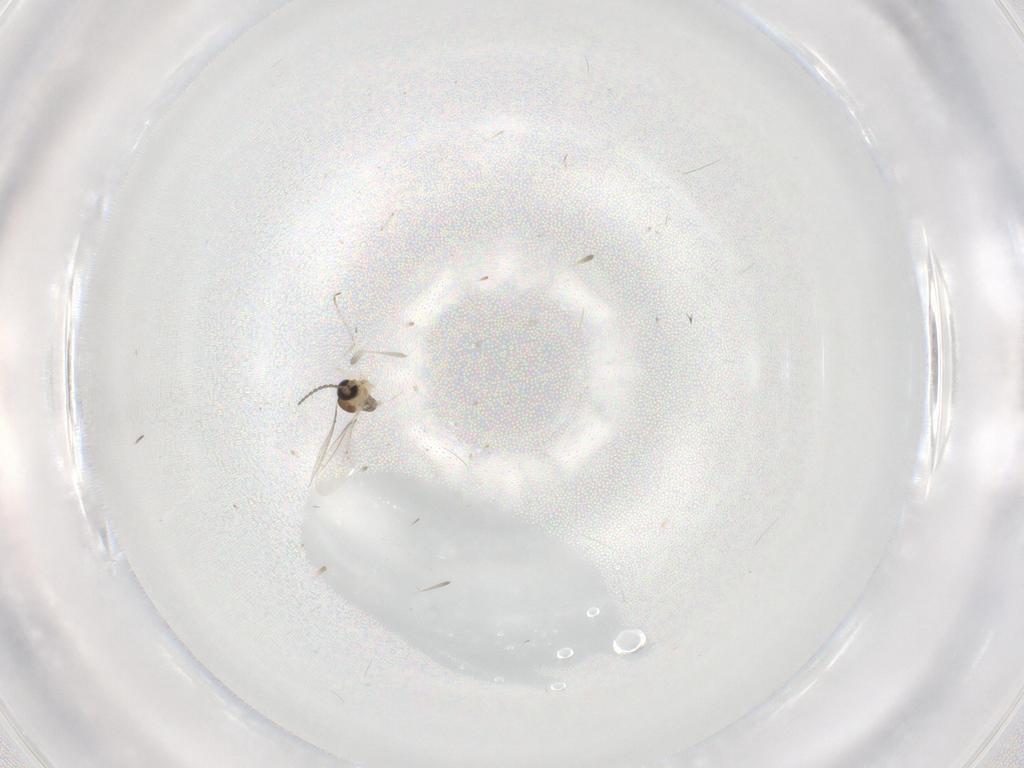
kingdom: Animalia
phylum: Arthropoda
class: Insecta
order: Diptera
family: Cecidomyiidae
